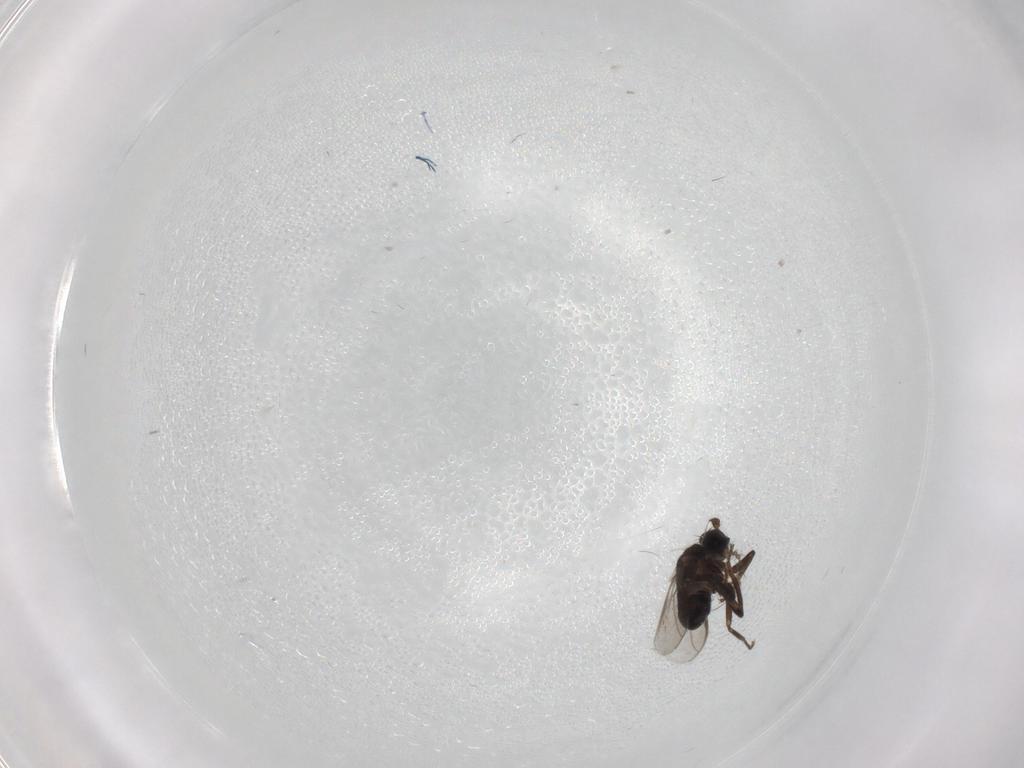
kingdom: Animalia
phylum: Arthropoda
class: Insecta
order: Diptera
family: Sphaeroceridae
